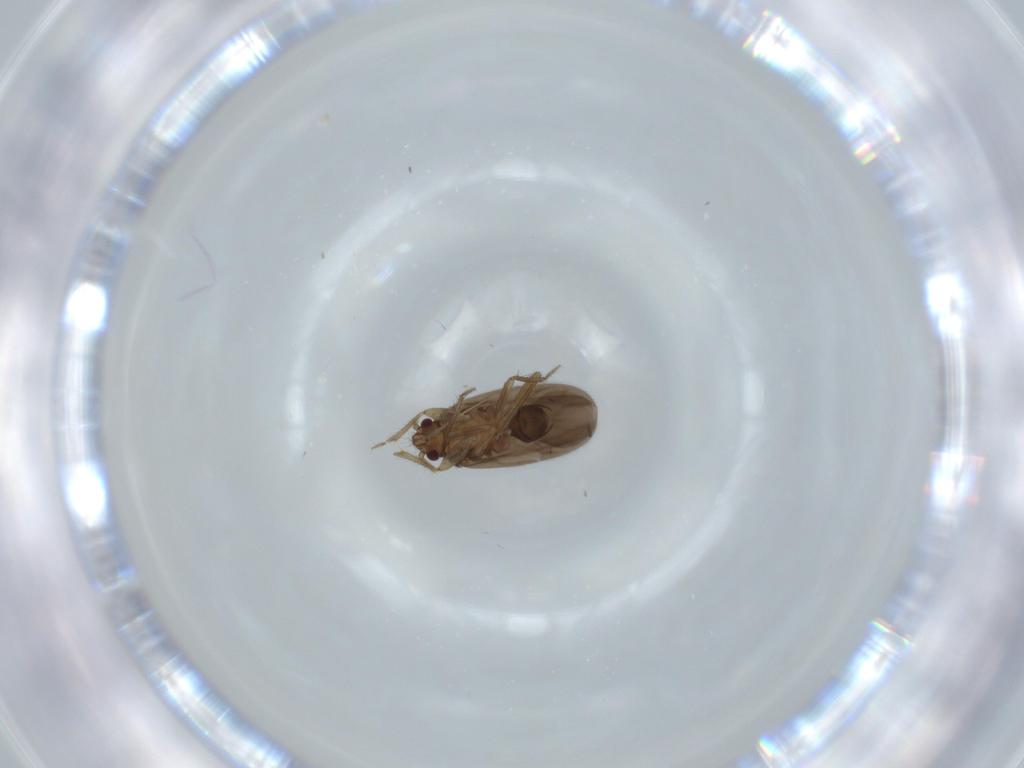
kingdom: Animalia
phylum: Arthropoda
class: Insecta
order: Hemiptera
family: Ceratocombidae
